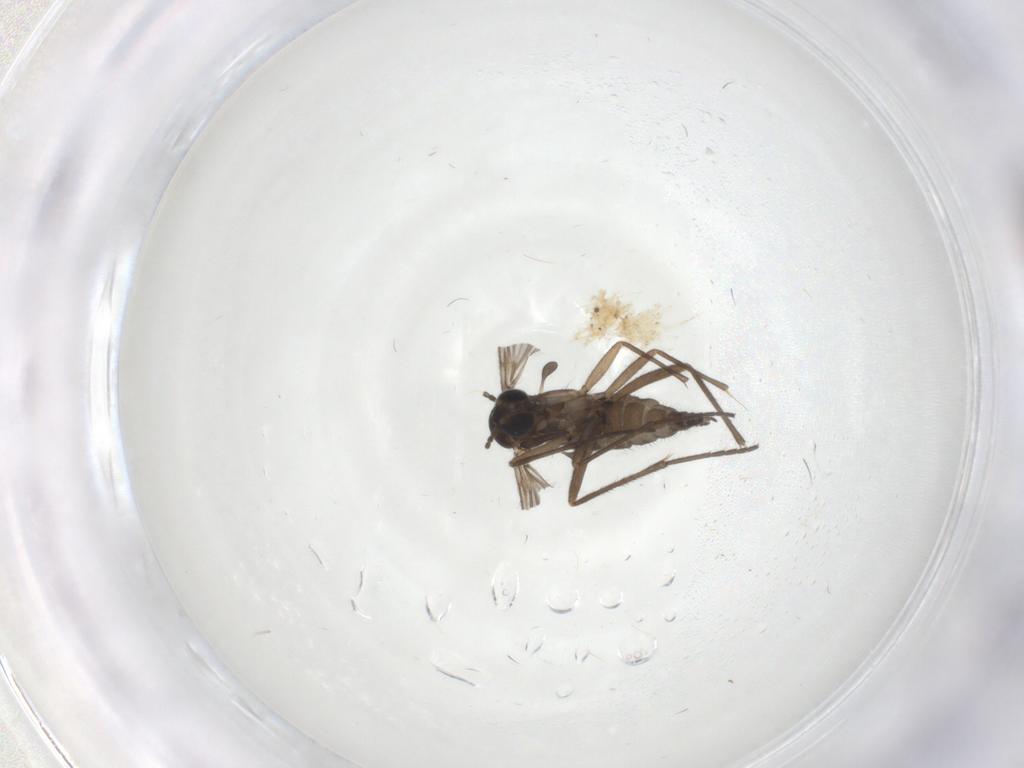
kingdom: Animalia
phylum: Arthropoda
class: Insecta
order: Diptera
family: Sciaridae
